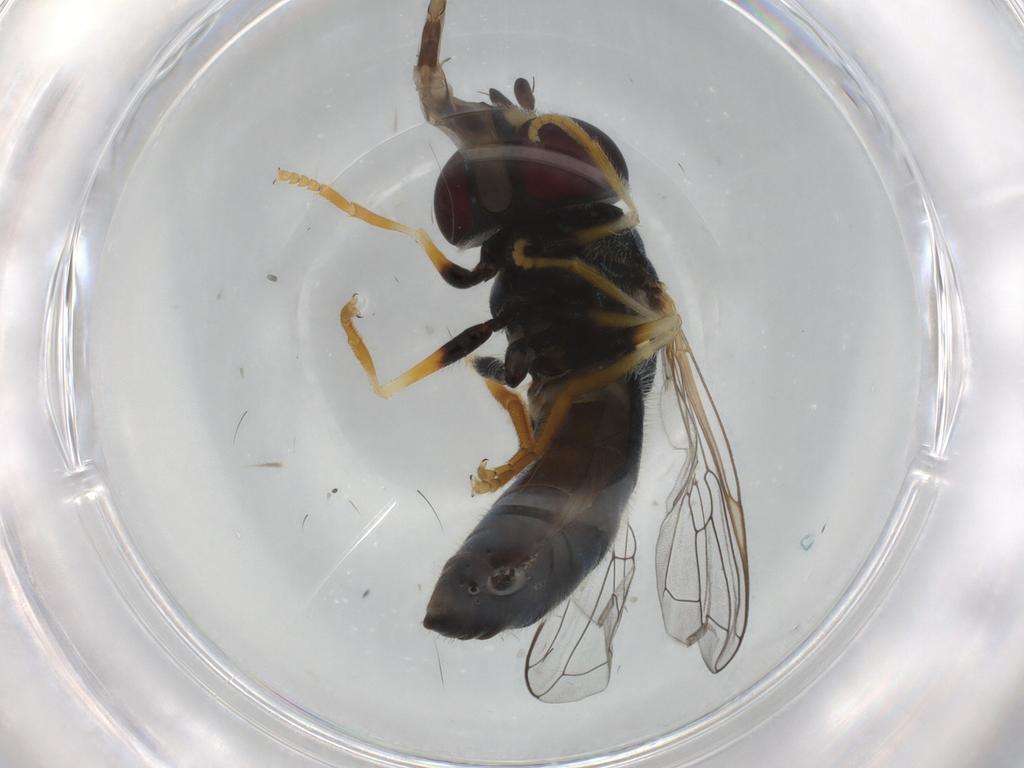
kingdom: Animalia
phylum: Arthropoda
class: Insecta
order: Diptera
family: Syrphidae
